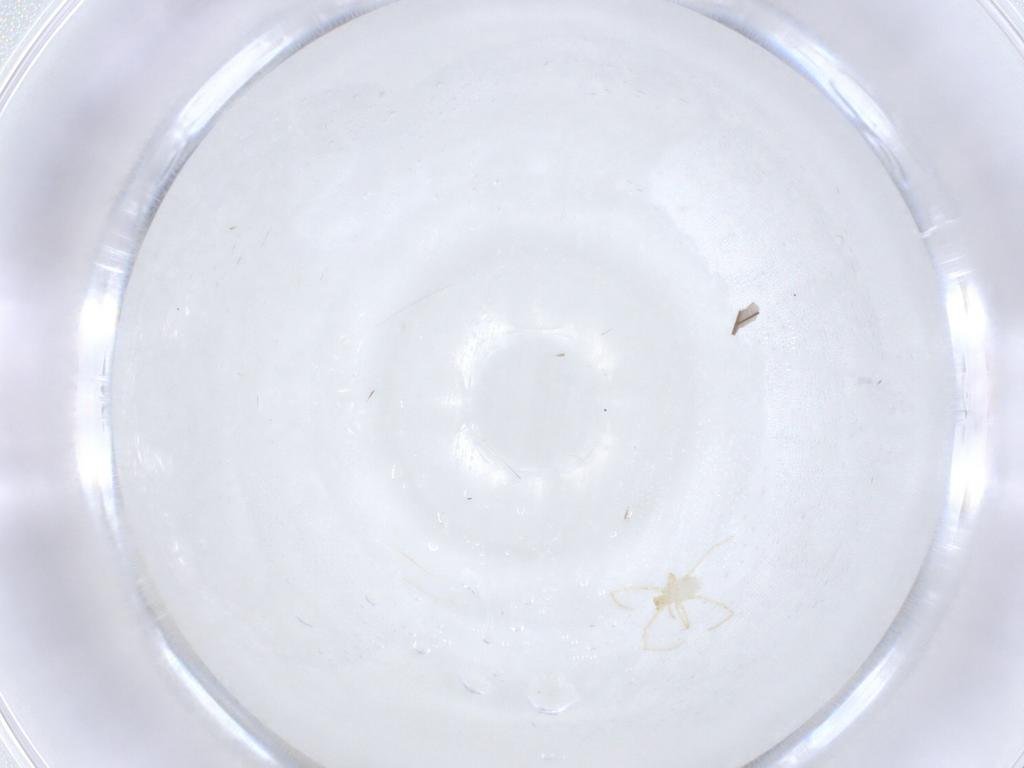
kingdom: Animalia
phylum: Arthropoda
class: Arachnida
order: Trombidiformes
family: Erythraeidae
